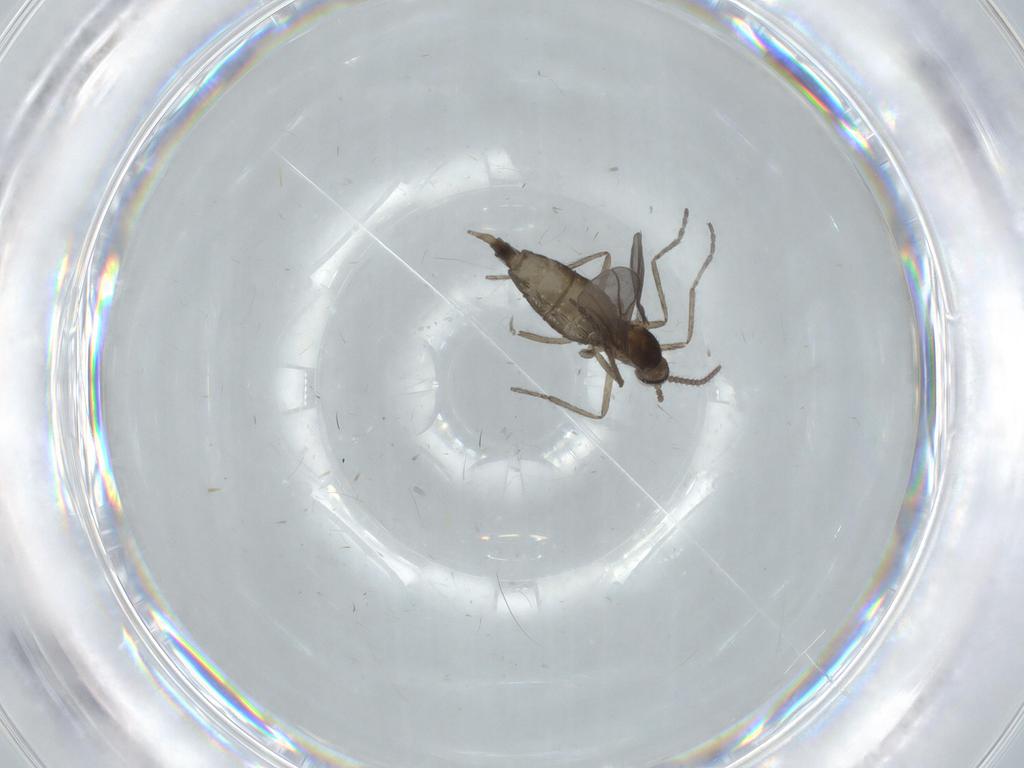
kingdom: Animalia
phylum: Arthropoda
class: Insecta
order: Diptera
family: Cecidomyiidae
